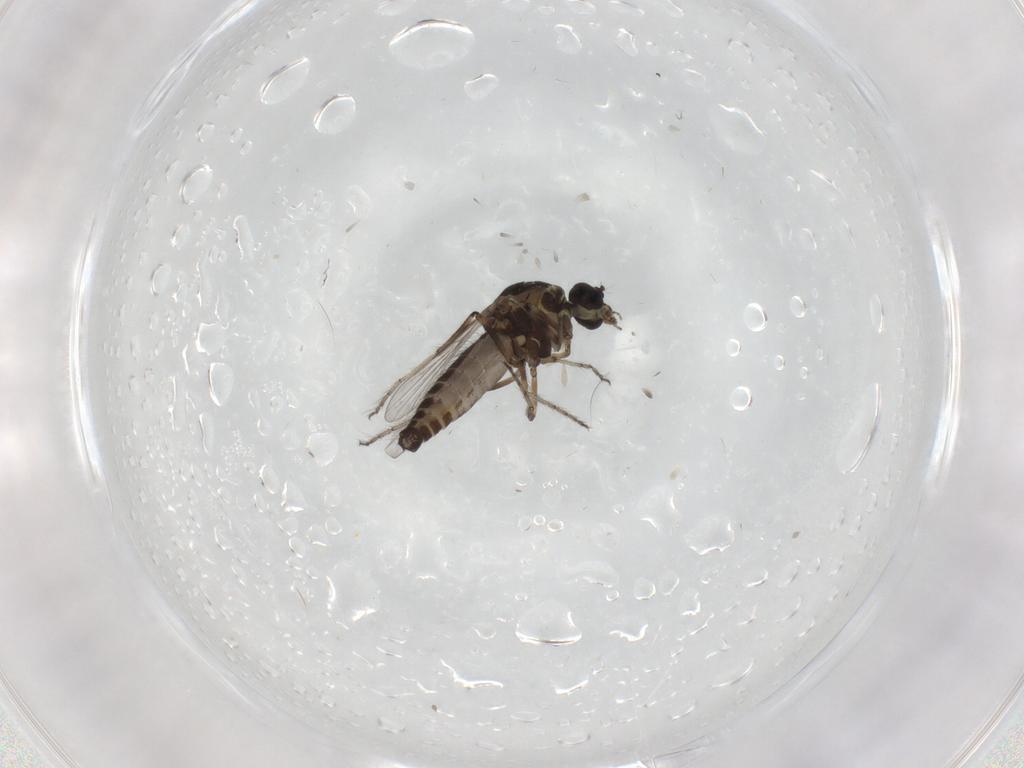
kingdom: Animalia
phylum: Arthropoda
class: Insecta
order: Diptera
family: Ceratopogonidae
